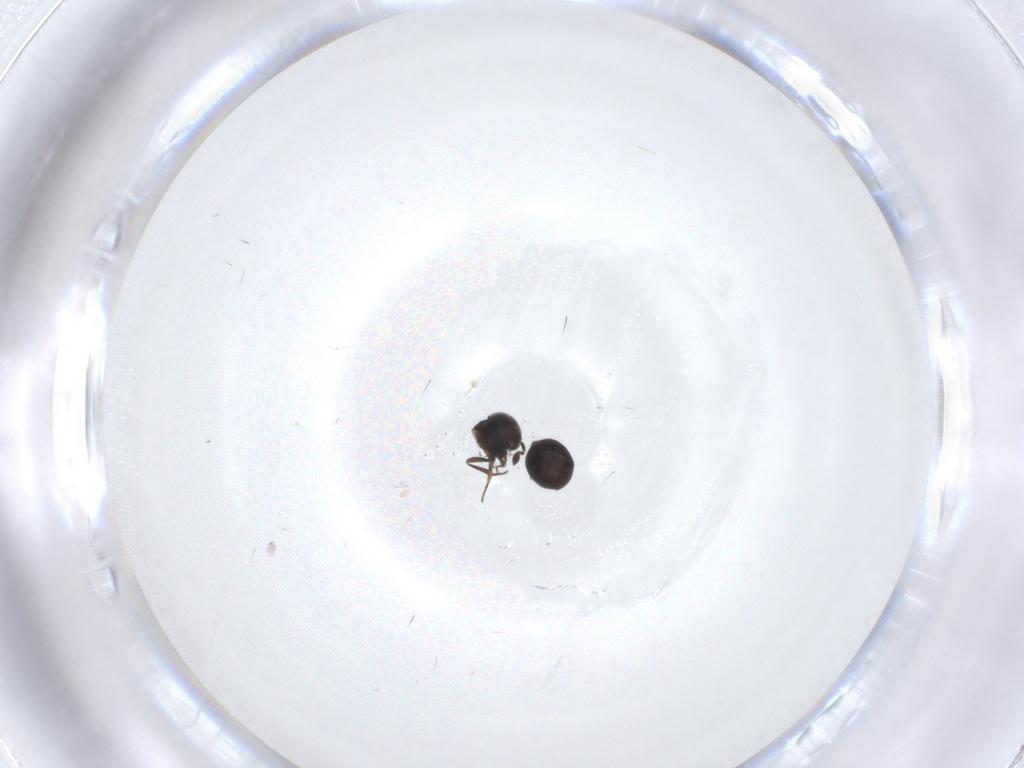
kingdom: Animalia
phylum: Arthropoda
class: Insecta
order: Hymenoptera
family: Scelionidae
